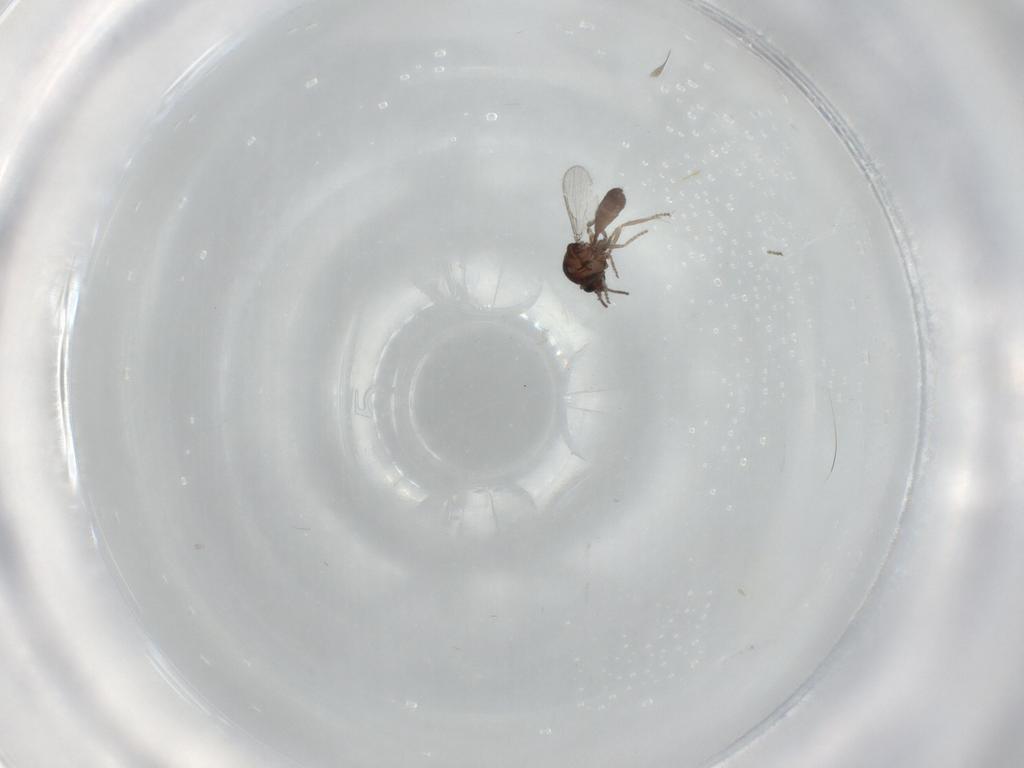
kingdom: Animalia
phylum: Arthropoda
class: Insecta
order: Diptera
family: Ceratopogonidae
